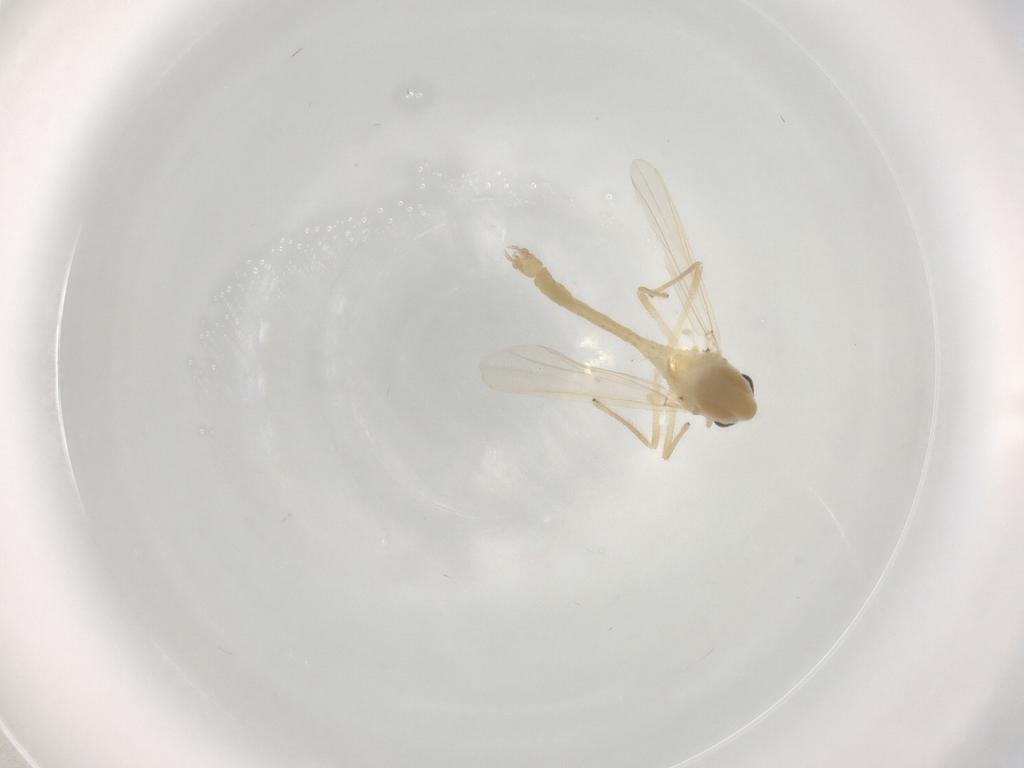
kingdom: Animalia
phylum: Arthropoda
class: Insecta
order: Diptera
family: Chironomidae
